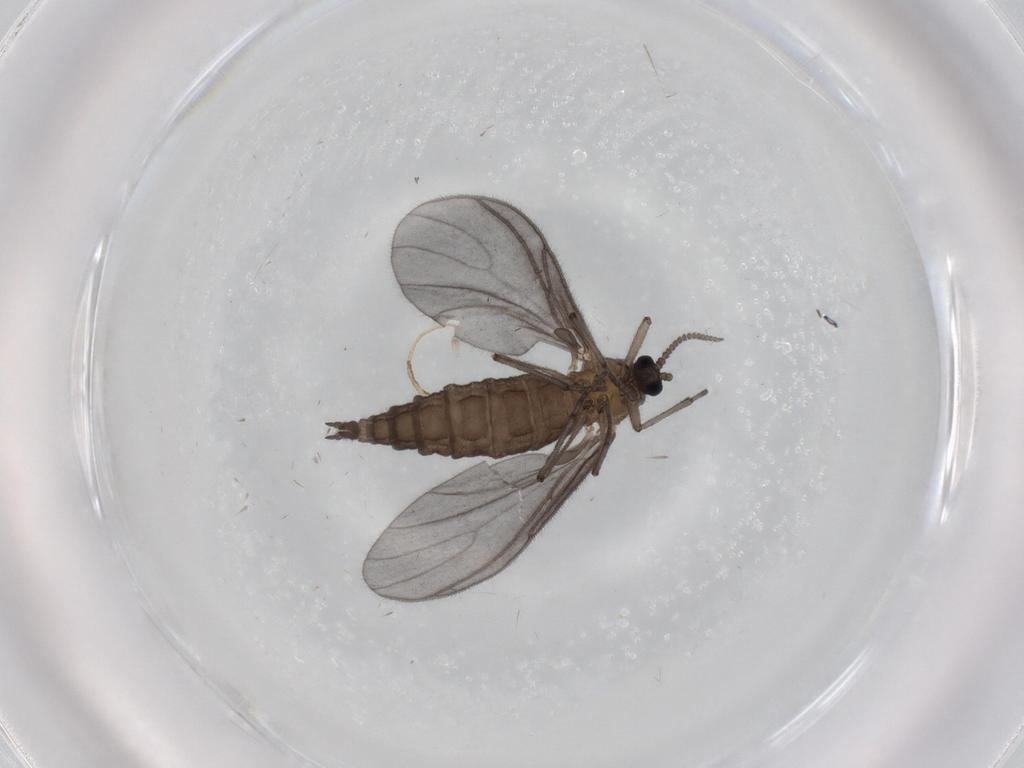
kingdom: Animalia
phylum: Arthropoda
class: Insecta
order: Diptera
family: Sciaridae
